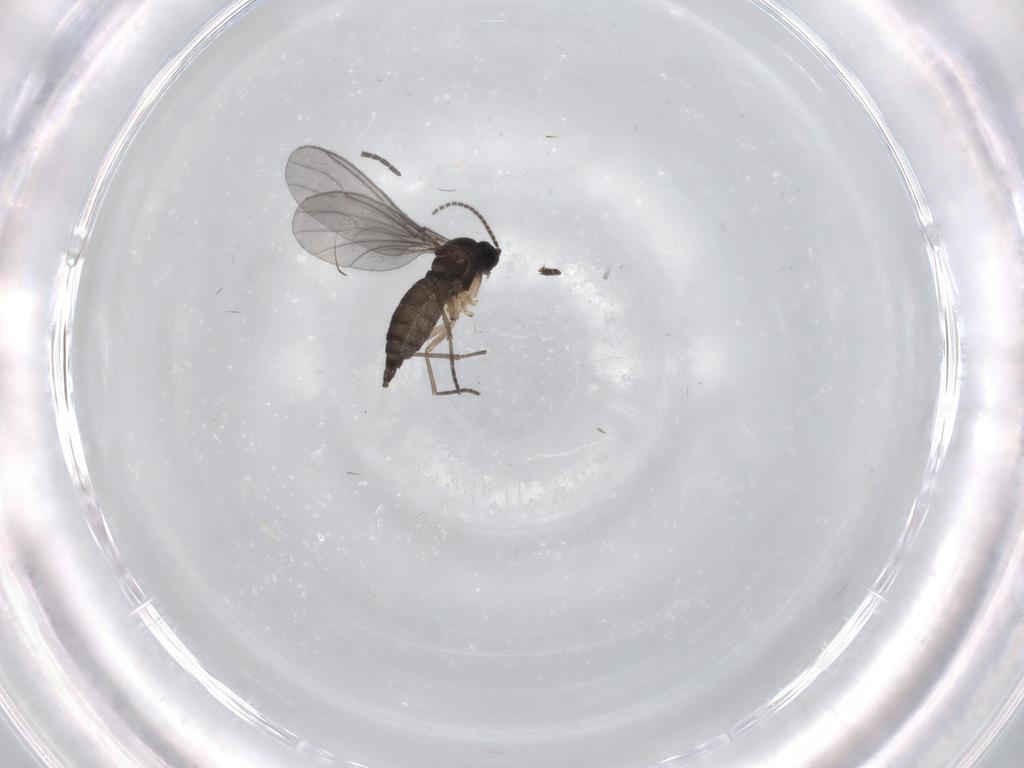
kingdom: Animalia
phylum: Arthropoda
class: Insecta
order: Diptera
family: Sciaridae
